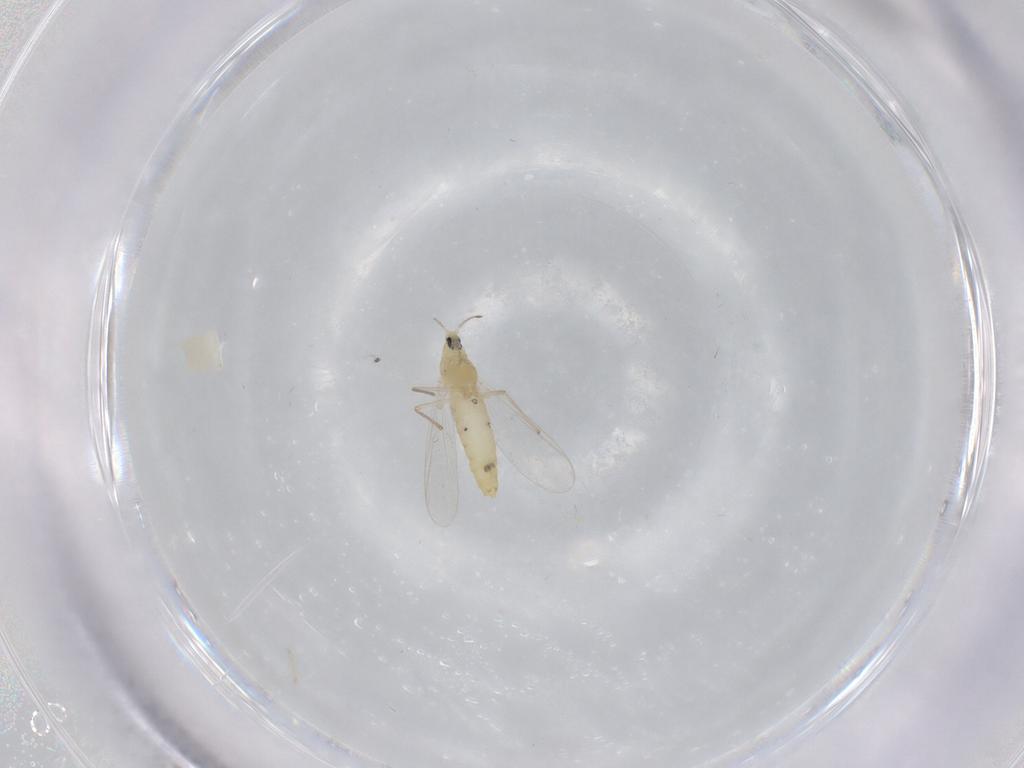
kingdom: Animalia
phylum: Arthropoda
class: Insecta
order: Diptera
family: Chironomidae
